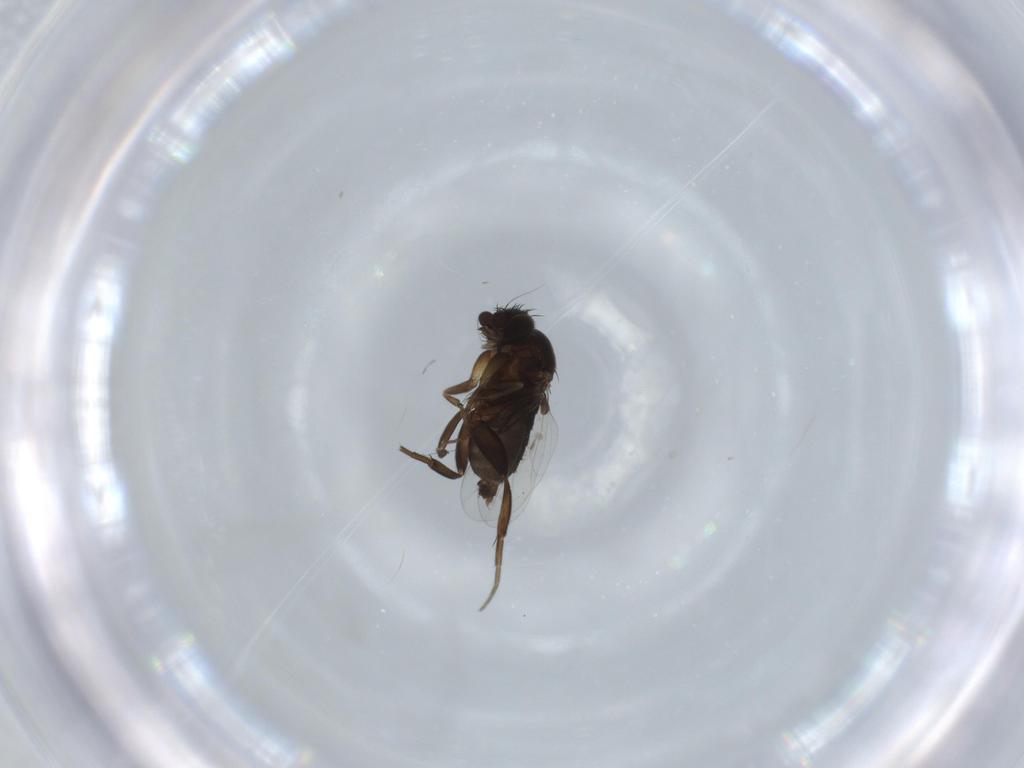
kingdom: Animalia
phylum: Arthropoda
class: Insecta
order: Diptera
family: Phoridae
